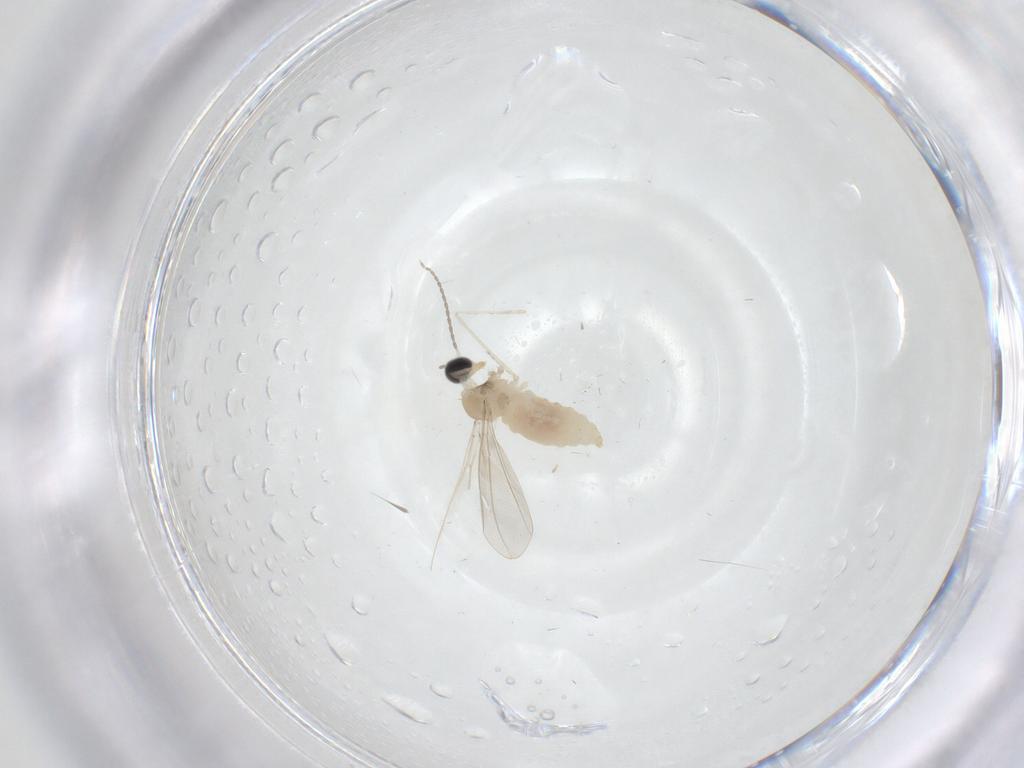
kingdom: Animalia
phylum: Arthropoda
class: Insecta
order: Diptera
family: Cecidomyiidae
